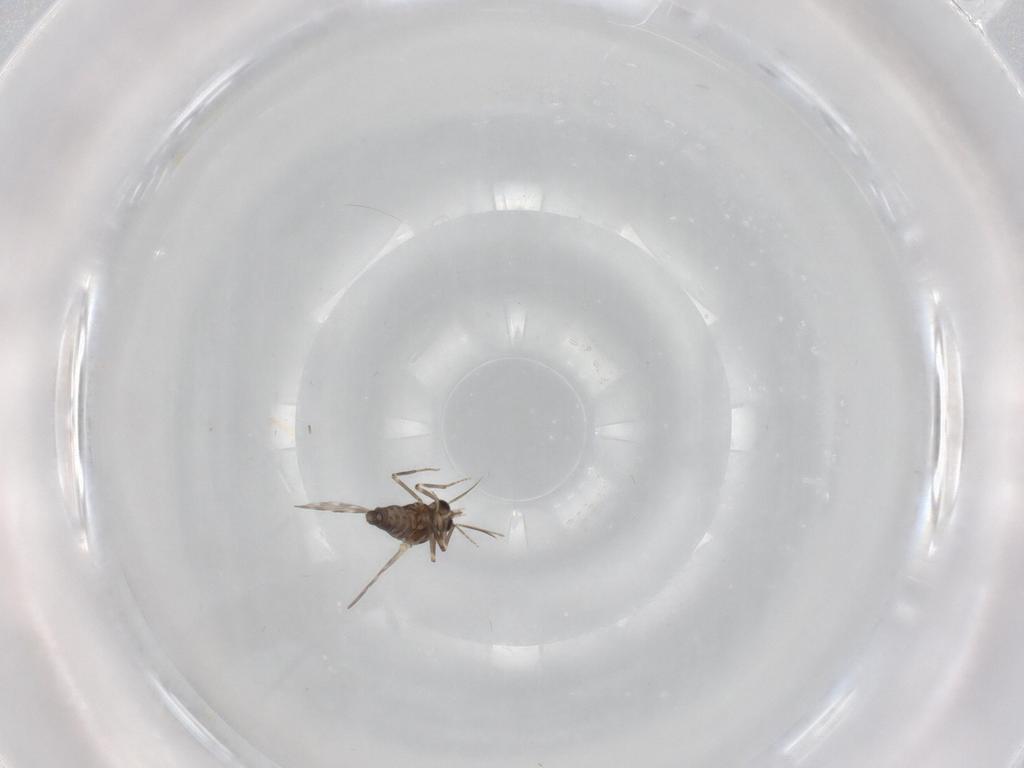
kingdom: Animalia
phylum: Arthropoda
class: Insecta
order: Diptera
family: Ceratopogonidae
